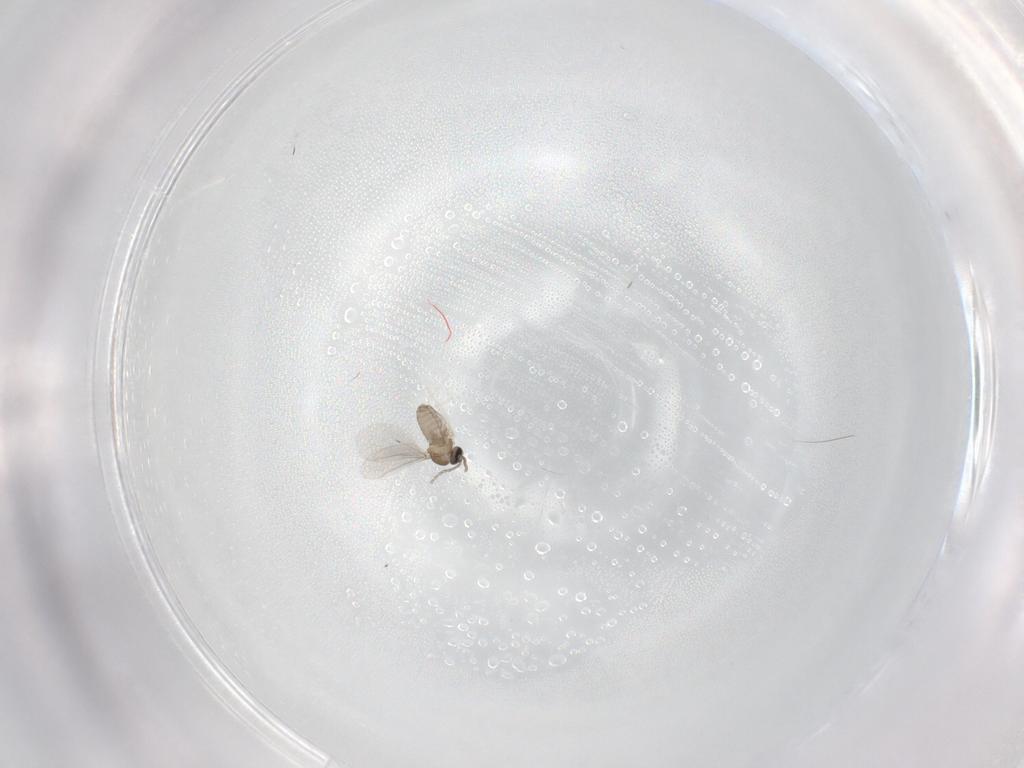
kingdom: Animalia
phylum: Arthropoda
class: Insecta
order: Diptera
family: Cecidomyiidae
